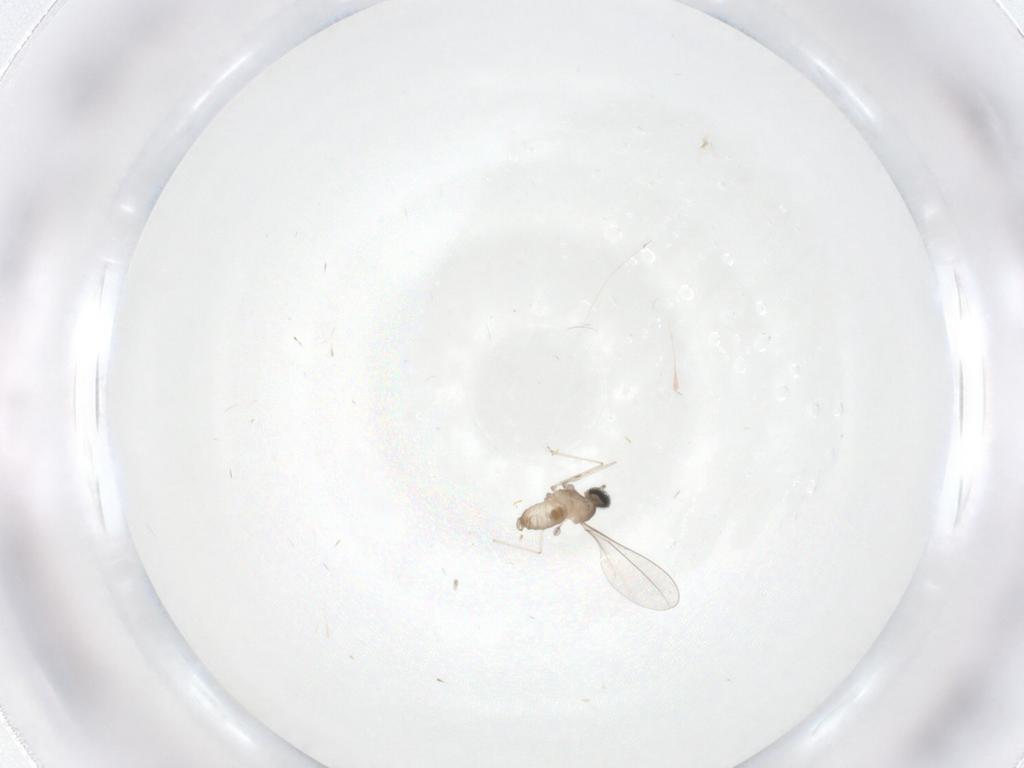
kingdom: Animalia
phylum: Arthropoda
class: Insecta
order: Diptera
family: Cecidomyiidae
